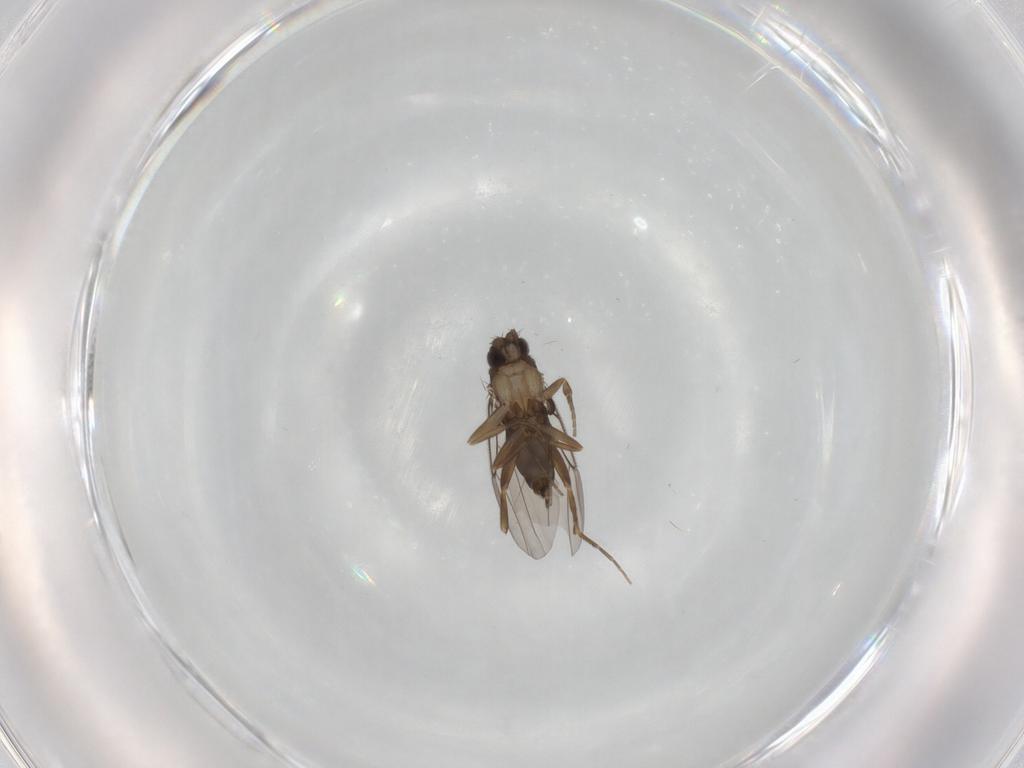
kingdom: Animalia
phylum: Arthropoda
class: Insecta
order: Diptera
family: Phoridae
